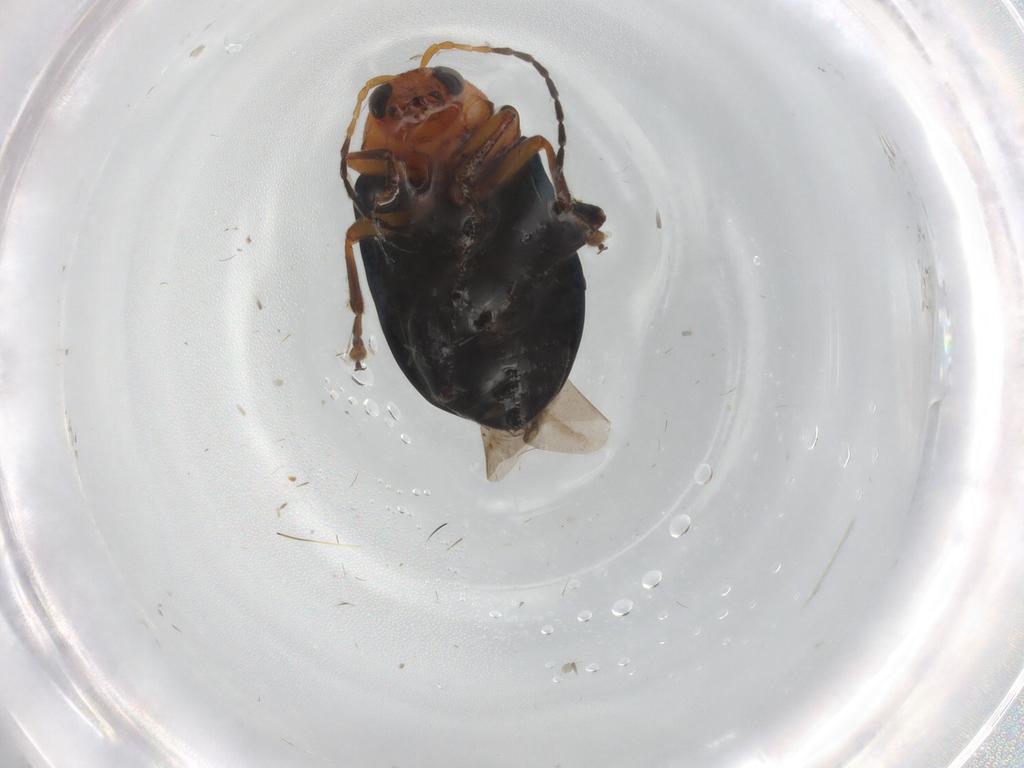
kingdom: Animalia
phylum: Arthropoda
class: Insecta
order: Coleoptera
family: Chrysomelidae
